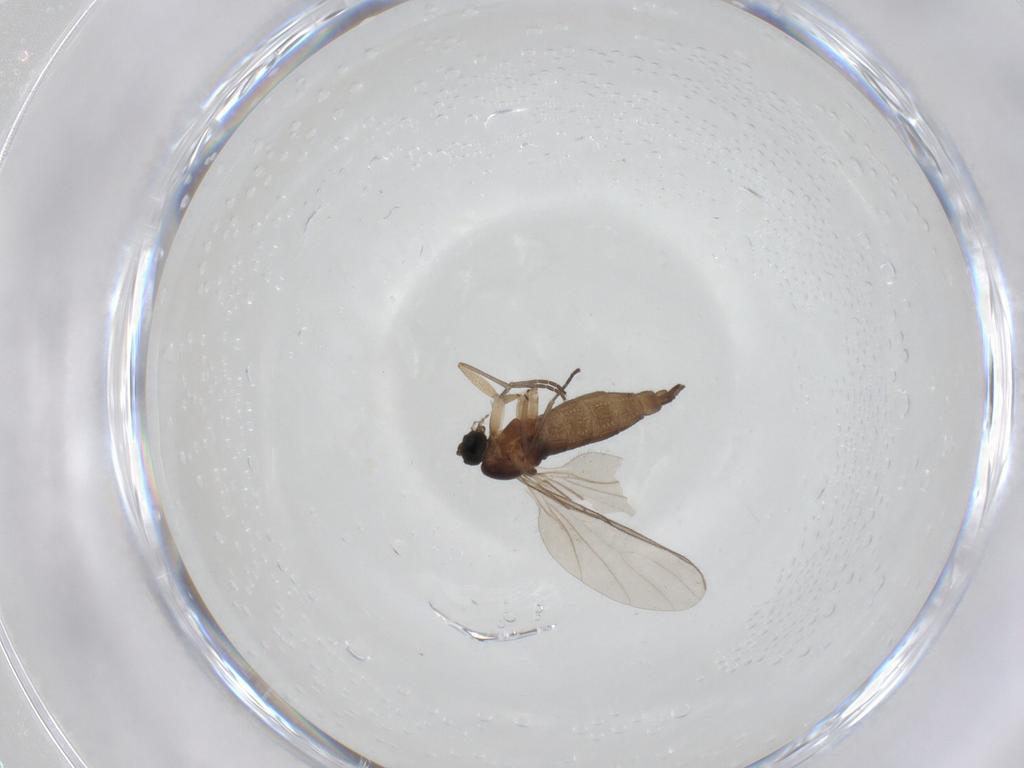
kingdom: Animalia
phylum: Arthropoda
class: Insecta
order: Diptera
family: Sciaridae
